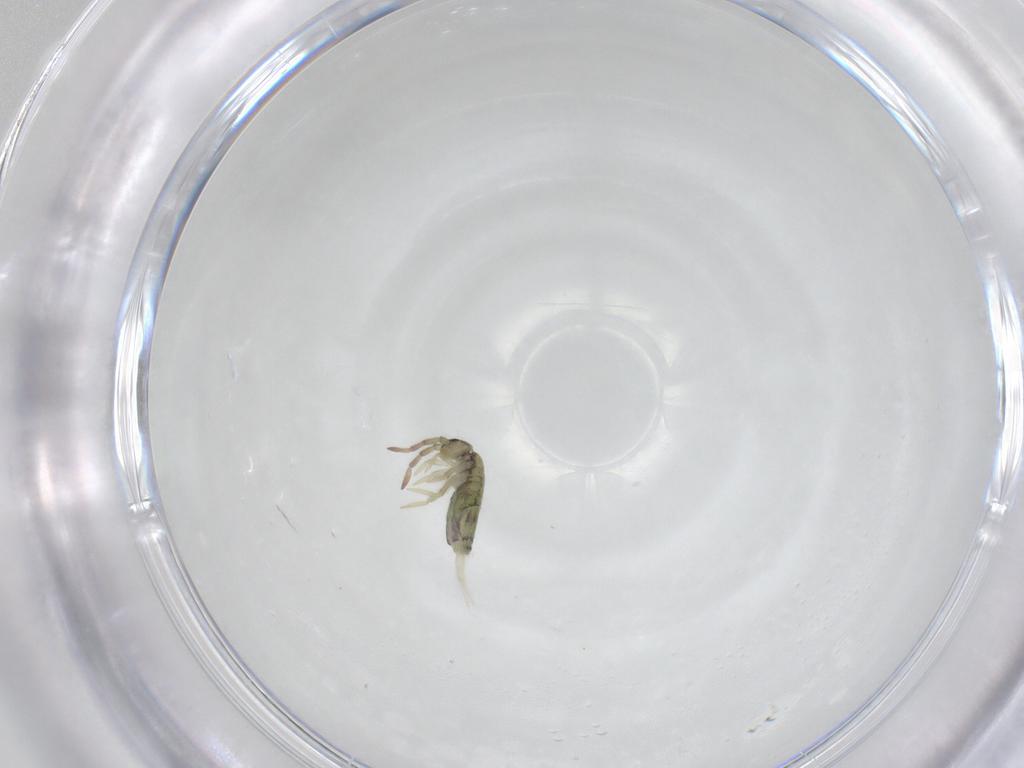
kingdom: Animalia
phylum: Arthropoda
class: Collembola
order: Entomobryomorpha
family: Entomobryidae
